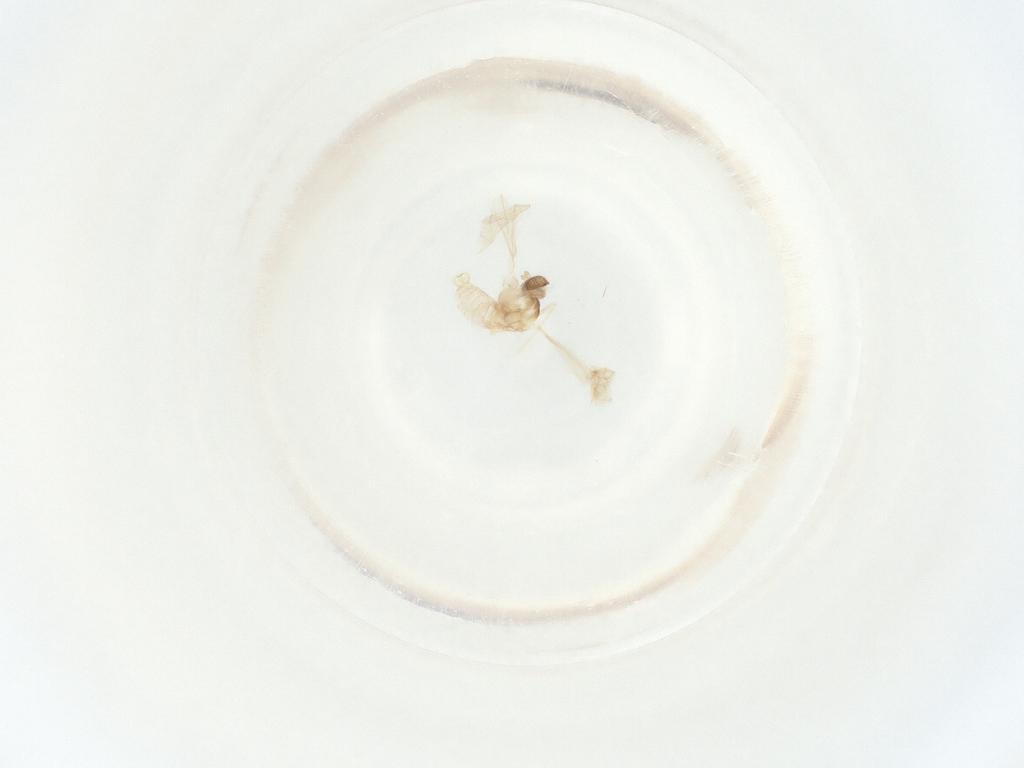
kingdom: Animalia
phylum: Arthropoda
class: Insecta
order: Diptera
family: Cecidomyiidae
